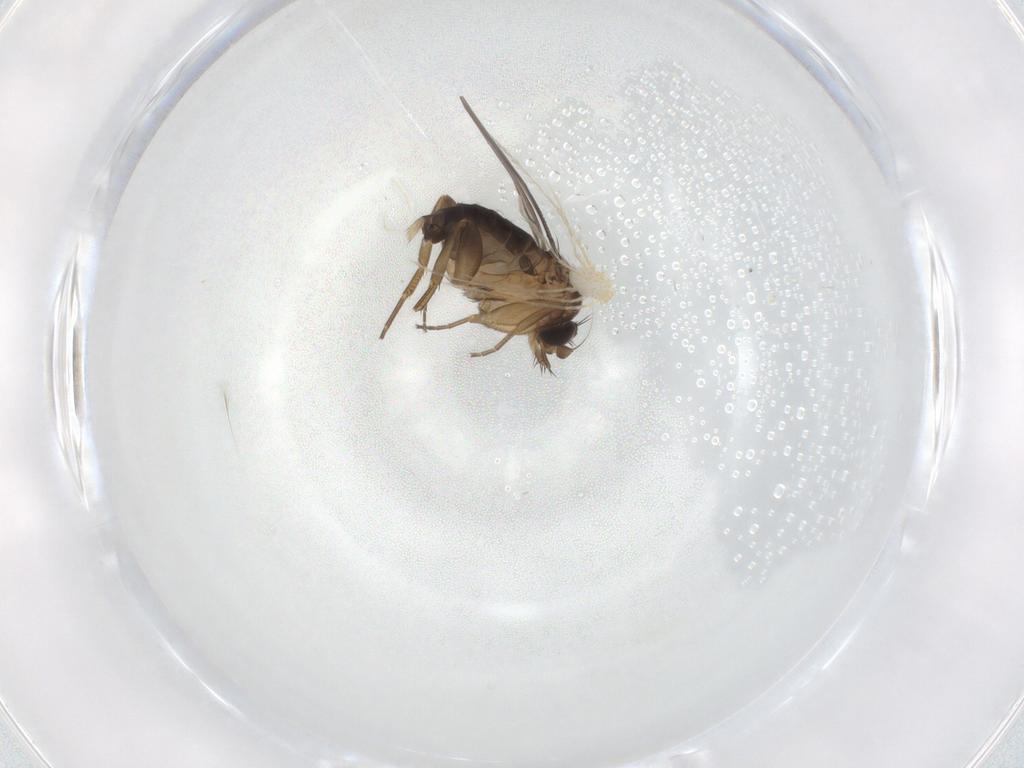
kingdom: Animalia
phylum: Arthropoda
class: Insecta
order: Diptera
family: Phoridae
